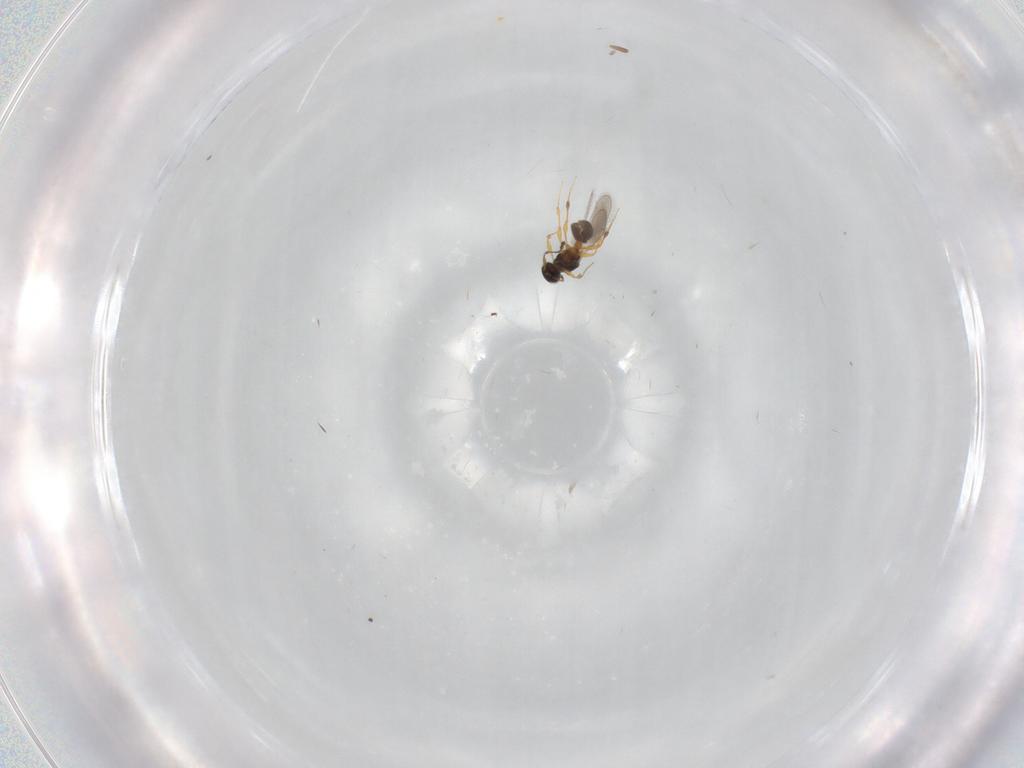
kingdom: Animalia
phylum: Arthropoda
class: Insecta
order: Hymenoptera
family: Platygastridae
